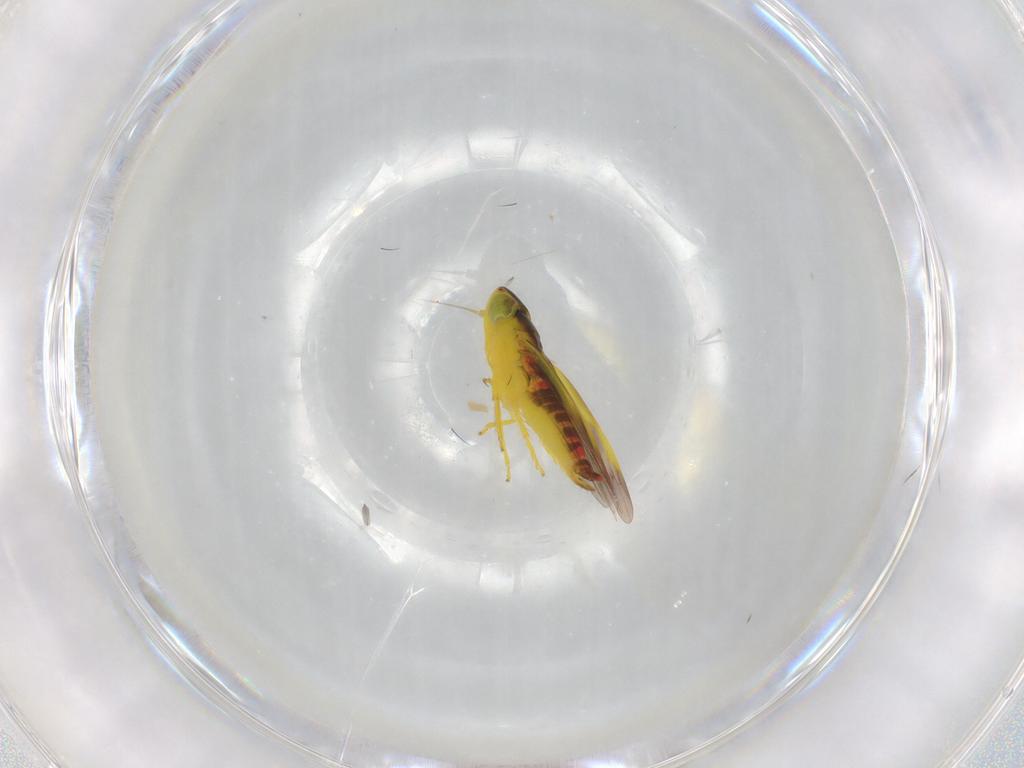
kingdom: Animalia
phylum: Arthropoda
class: Insecta
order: Hemiptera
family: Cicadellidae
